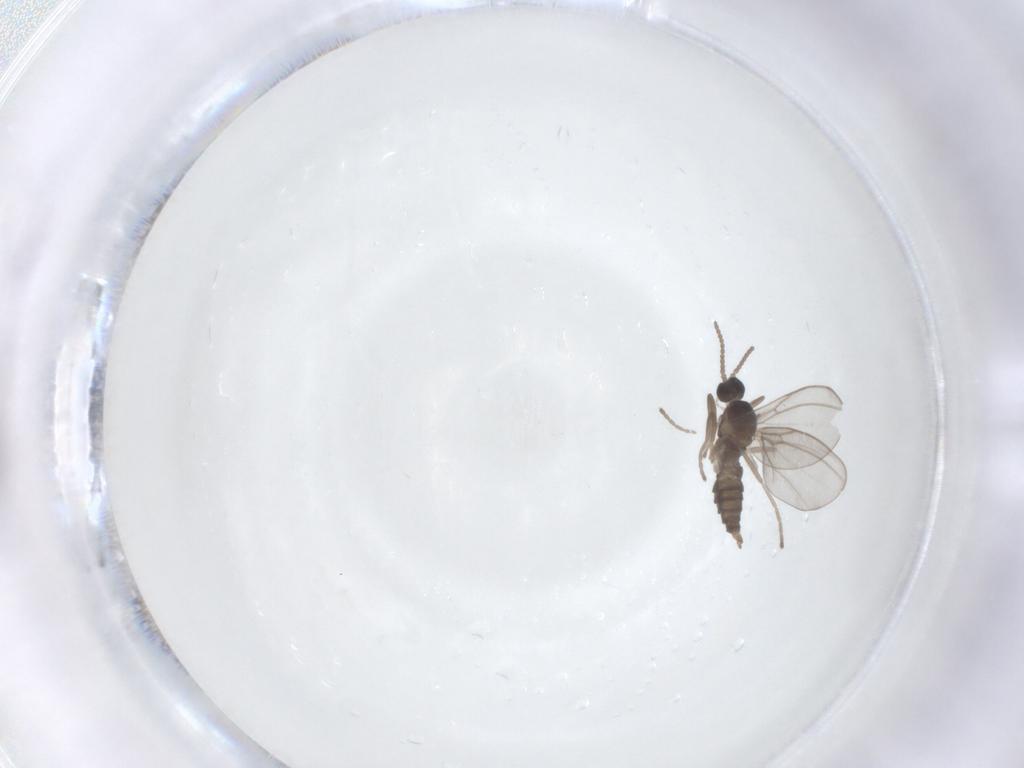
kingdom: Animalia
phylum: Arthropoda
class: Insecta
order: Diptera
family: Cecidomyiidae
